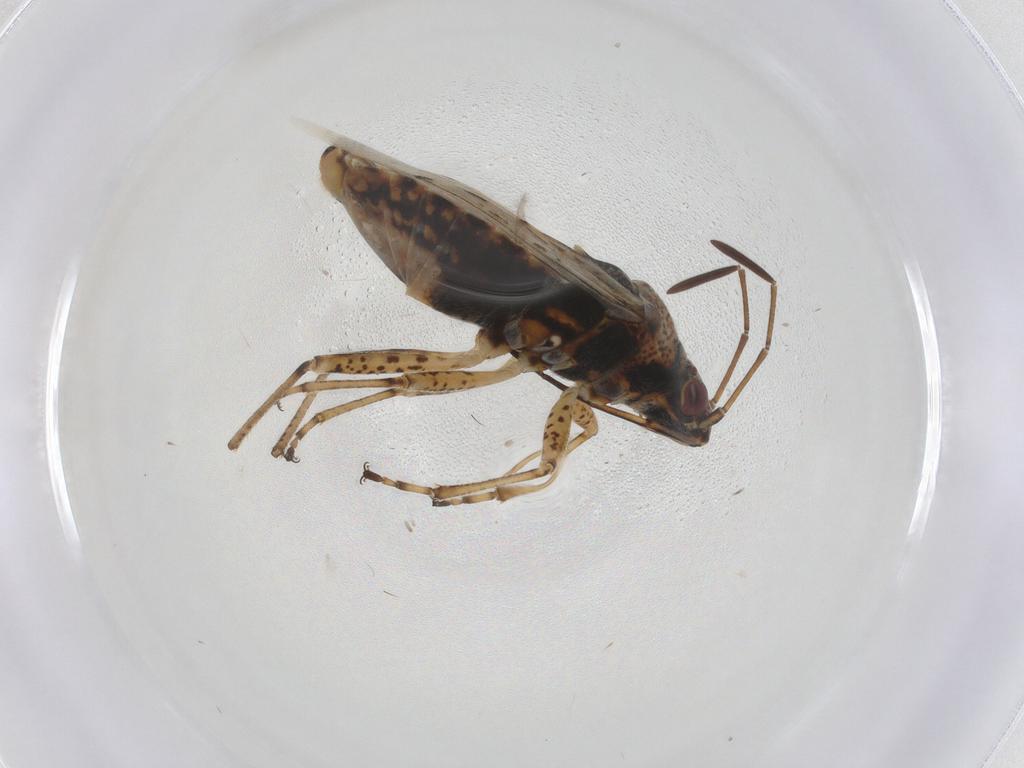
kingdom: Animalia
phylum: Arthropoda
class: Insecta
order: Hemiptera
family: Lygaeidae
